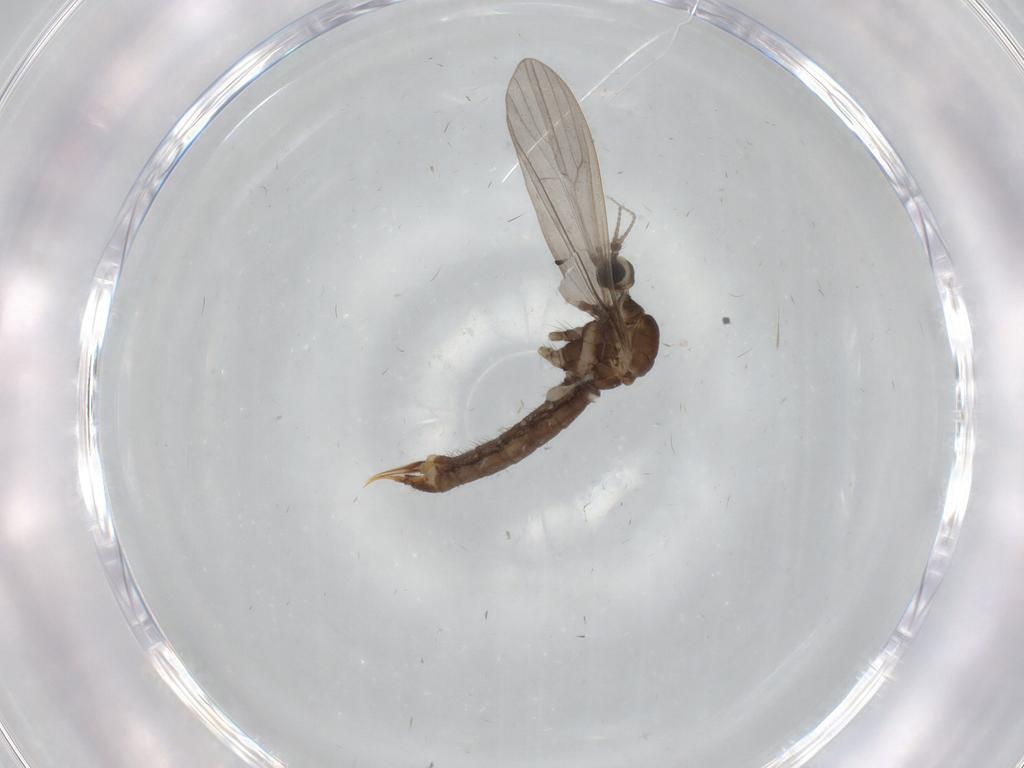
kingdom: Animalia
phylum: Arthropoda
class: Insecta
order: Diptera
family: Limoniidae
